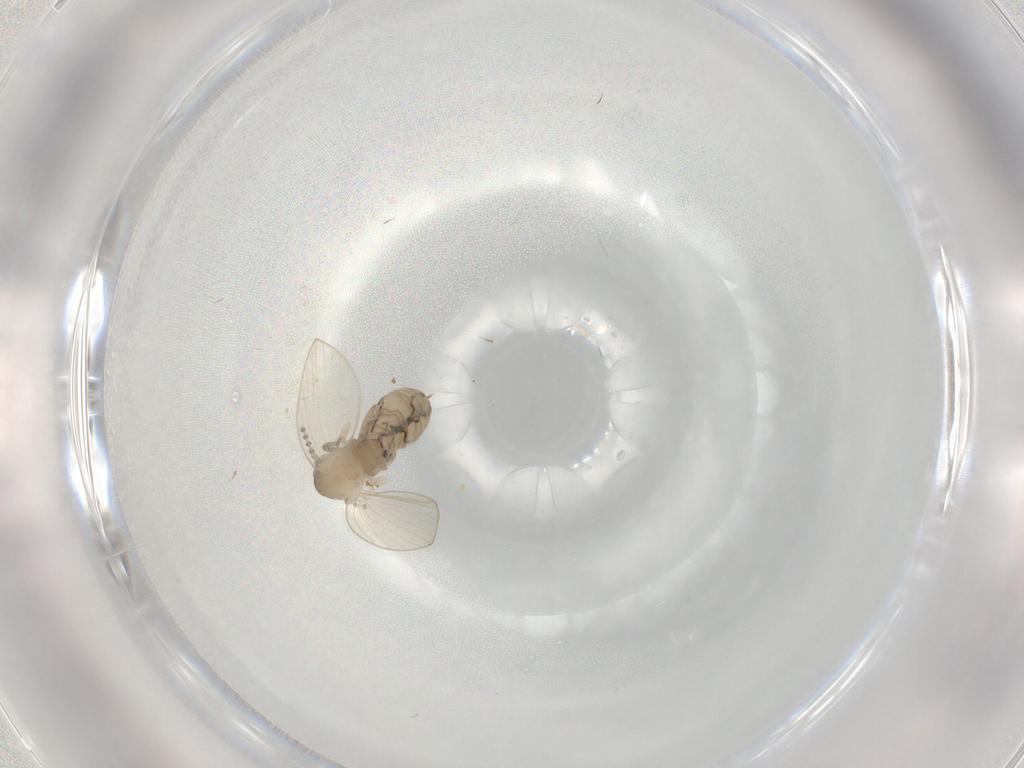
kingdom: Animalia
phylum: Arthropoda
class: Insecta
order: Diptera
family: Psychodidae
